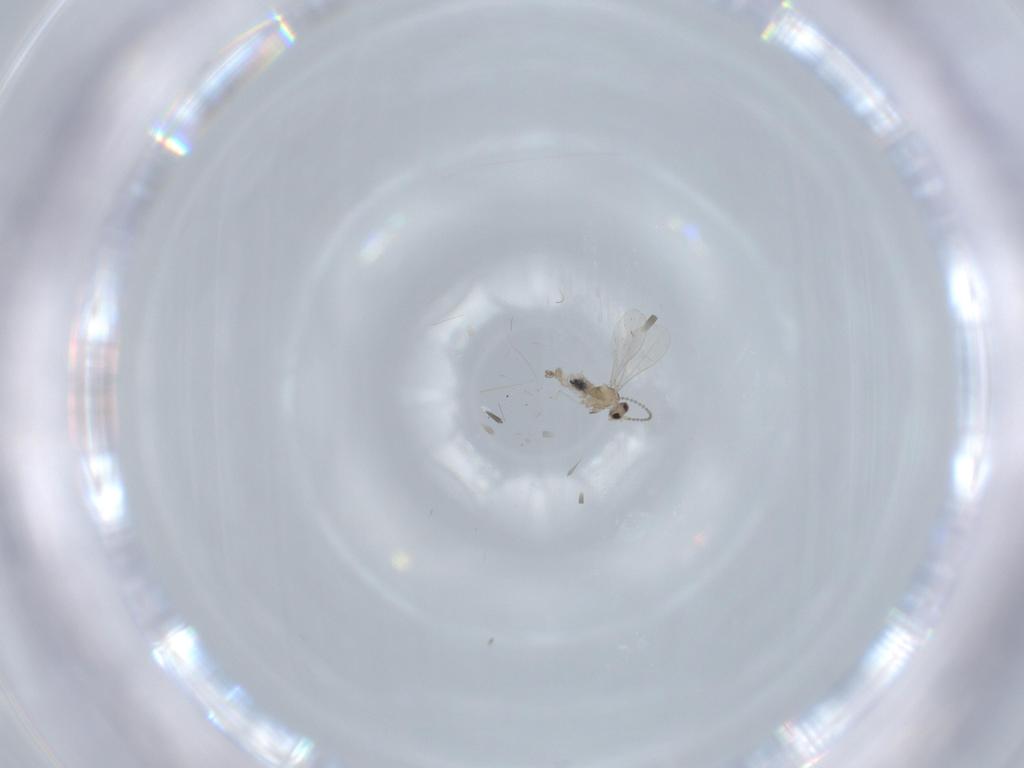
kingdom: Animalia
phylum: Arthropoda
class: Insecta
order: Diptera
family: Cecidomyiidae
